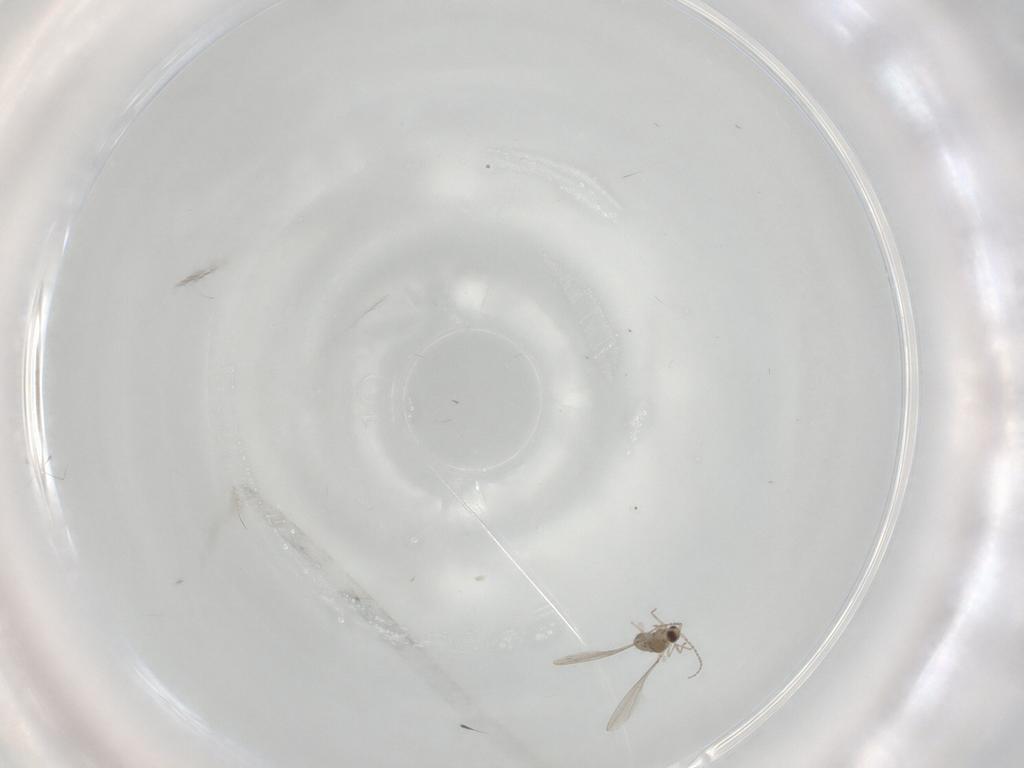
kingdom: Animalia
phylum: Arthropoda
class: Insecta
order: Diptera
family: Cecidomyiidae
